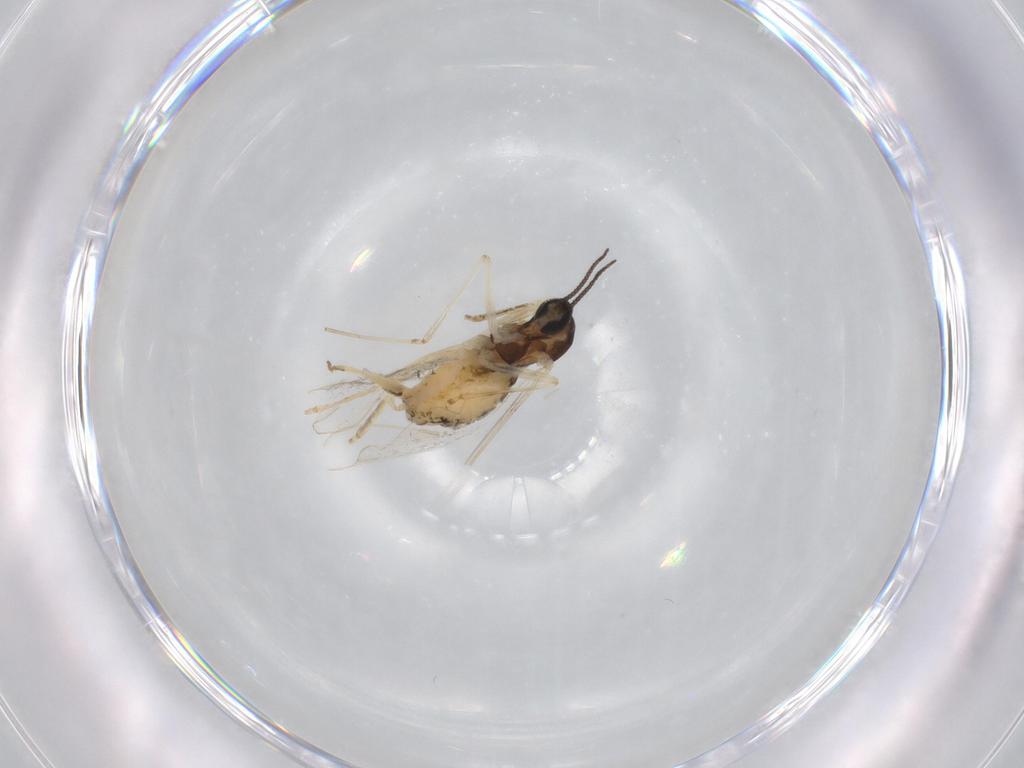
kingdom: Animalia
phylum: Arthropoda
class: Insecta
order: Diptera
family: Cecidomyiidae
